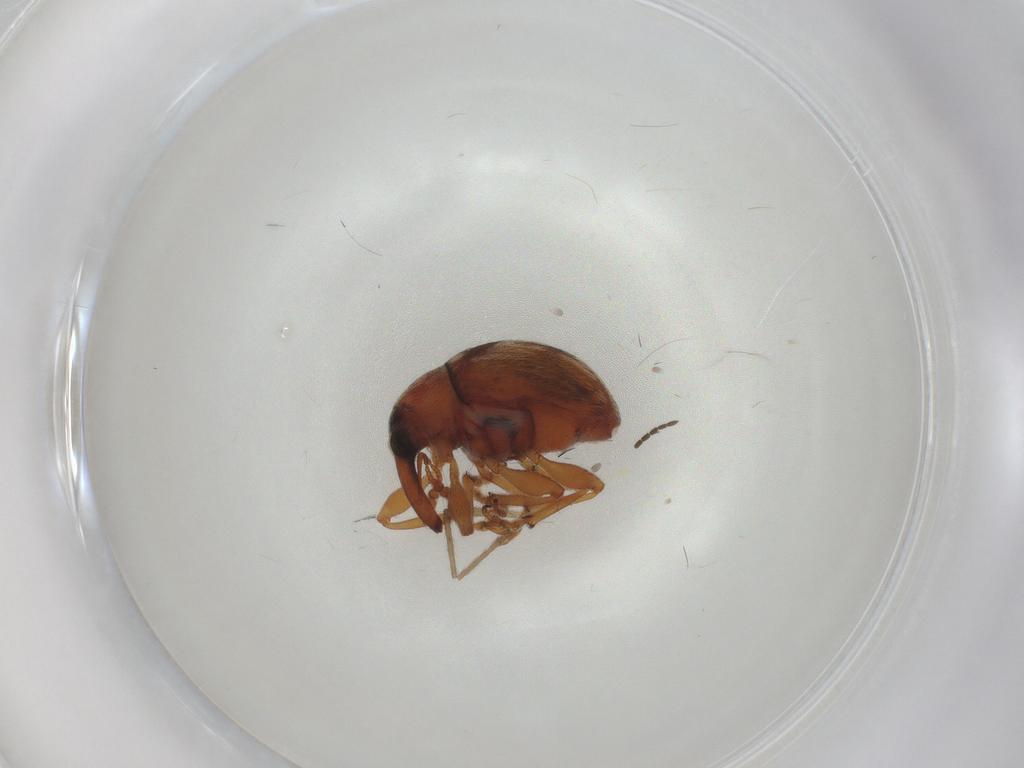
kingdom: Animalia
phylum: Arthropoda
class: Insecta
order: Coleoptera
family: Brentidae
